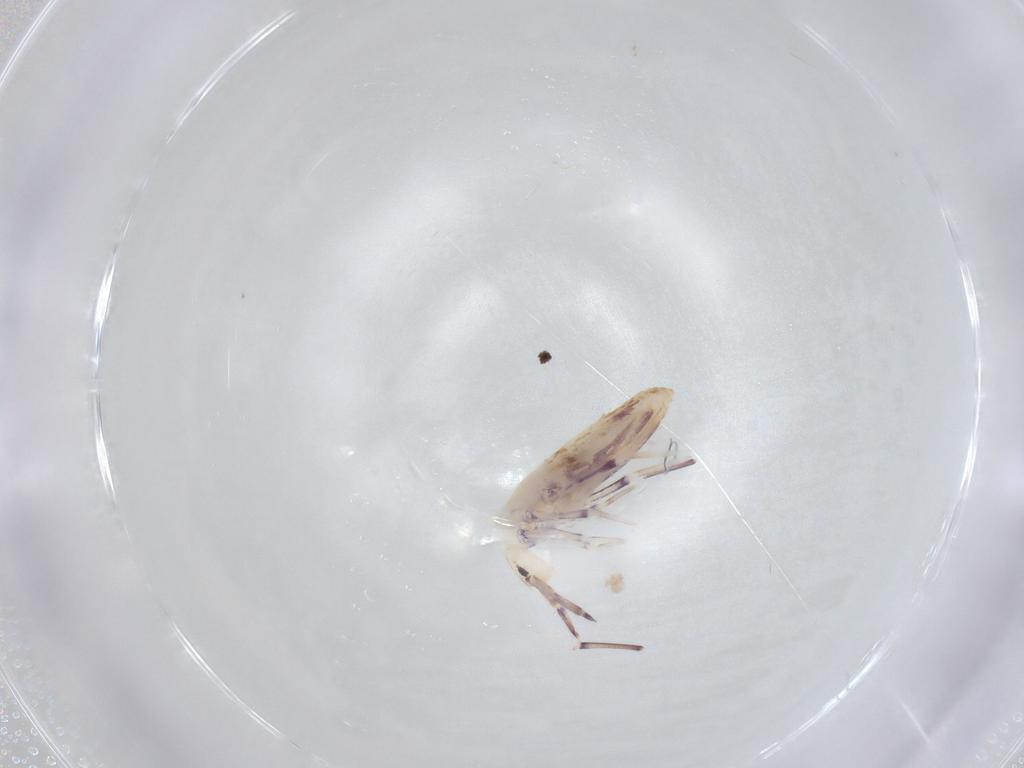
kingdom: Animalia
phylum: Arthropoda
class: Collembola
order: Poduromorpha
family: Hypogastruridae
